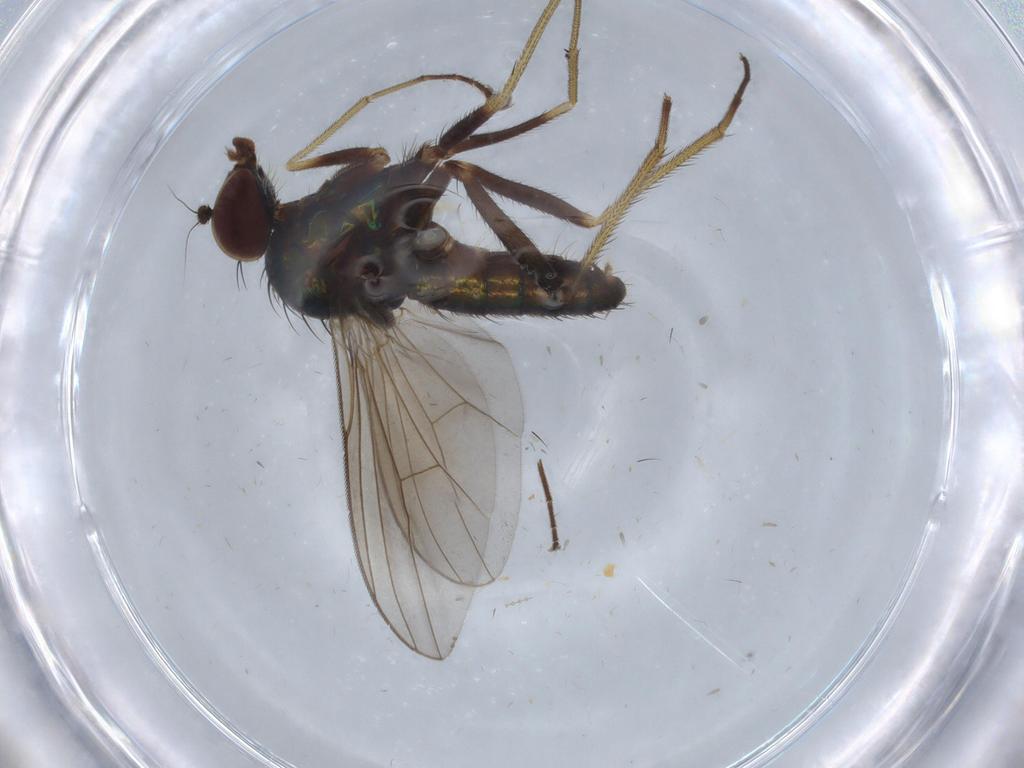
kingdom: Animalia
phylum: Arthropoda
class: Insecta
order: Diptera
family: Dolichopodidae
